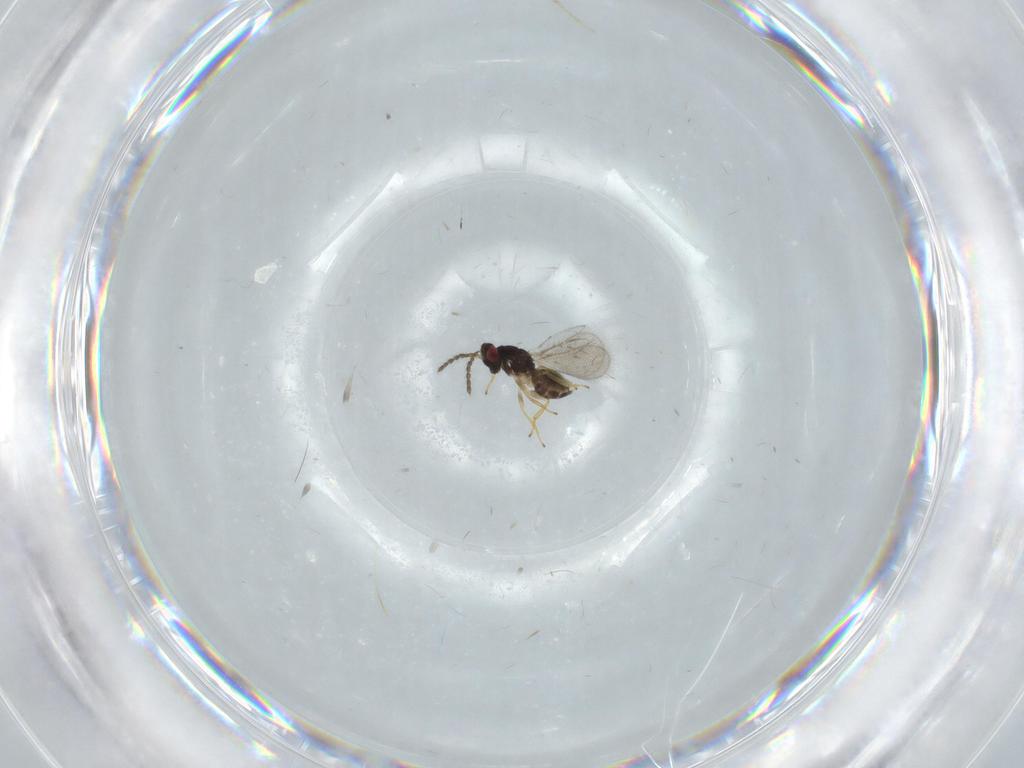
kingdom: Animalia
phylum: Arthropoda
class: Insecta
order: Hymenoptera
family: Eulophidae
